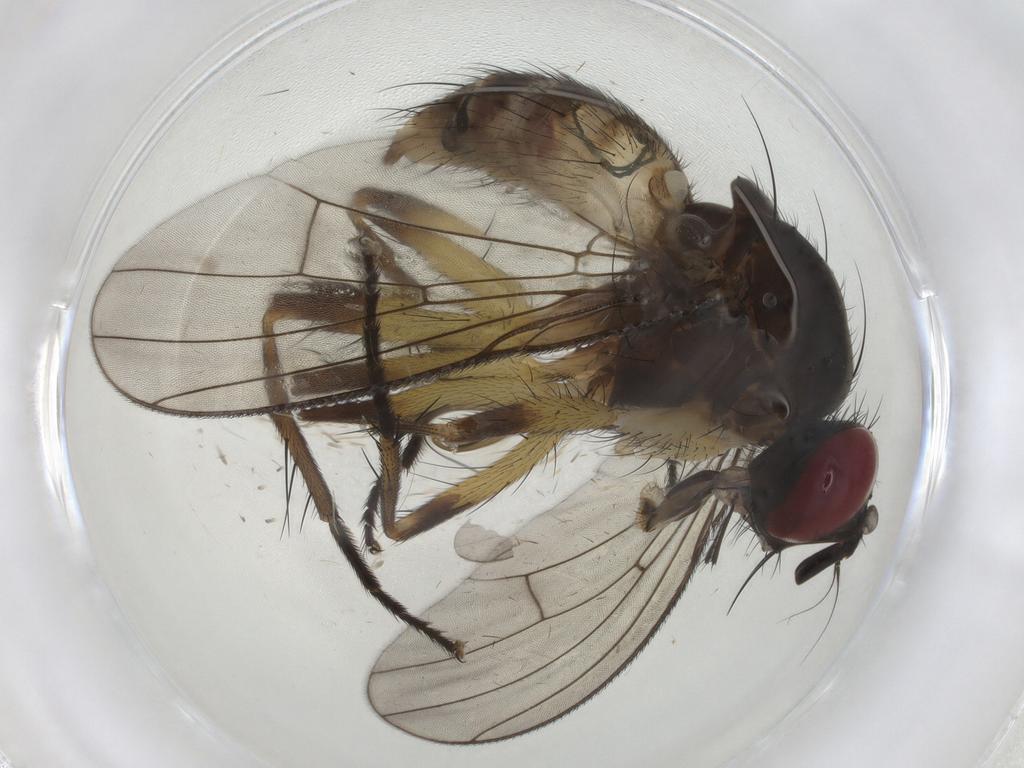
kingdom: Animalia
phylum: Arthropoda
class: Insecta
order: Diptera
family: Muscidae
